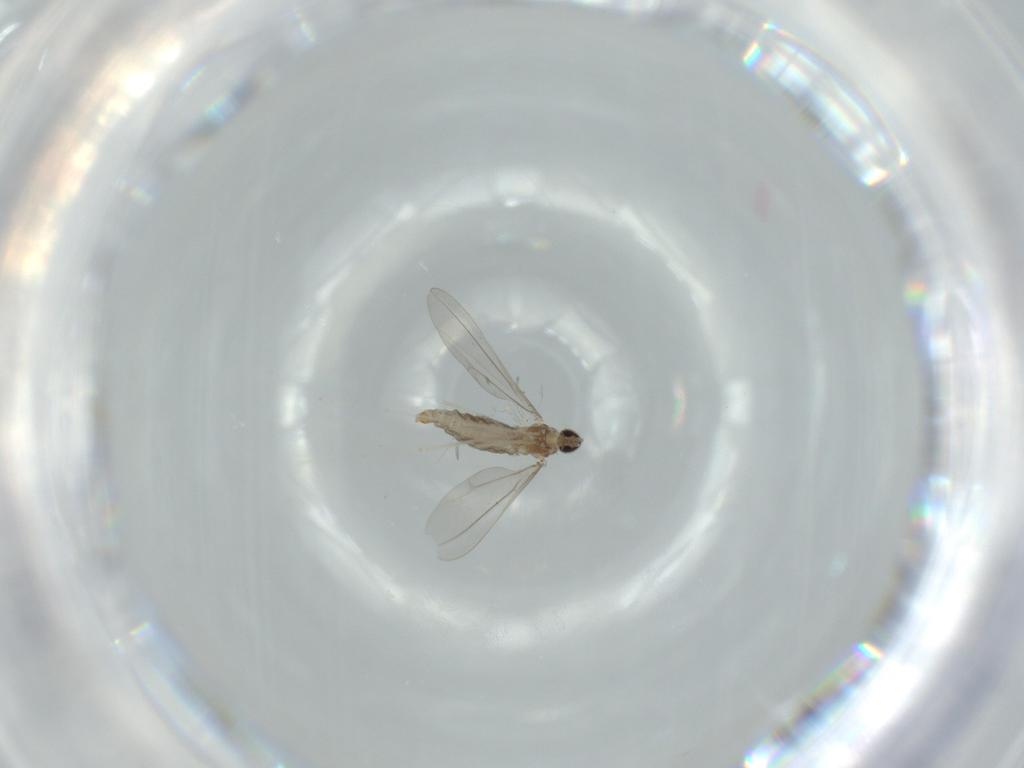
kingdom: Animalia
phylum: Arthropoda
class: Insecta
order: Diptera
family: Cecidomyiidae
